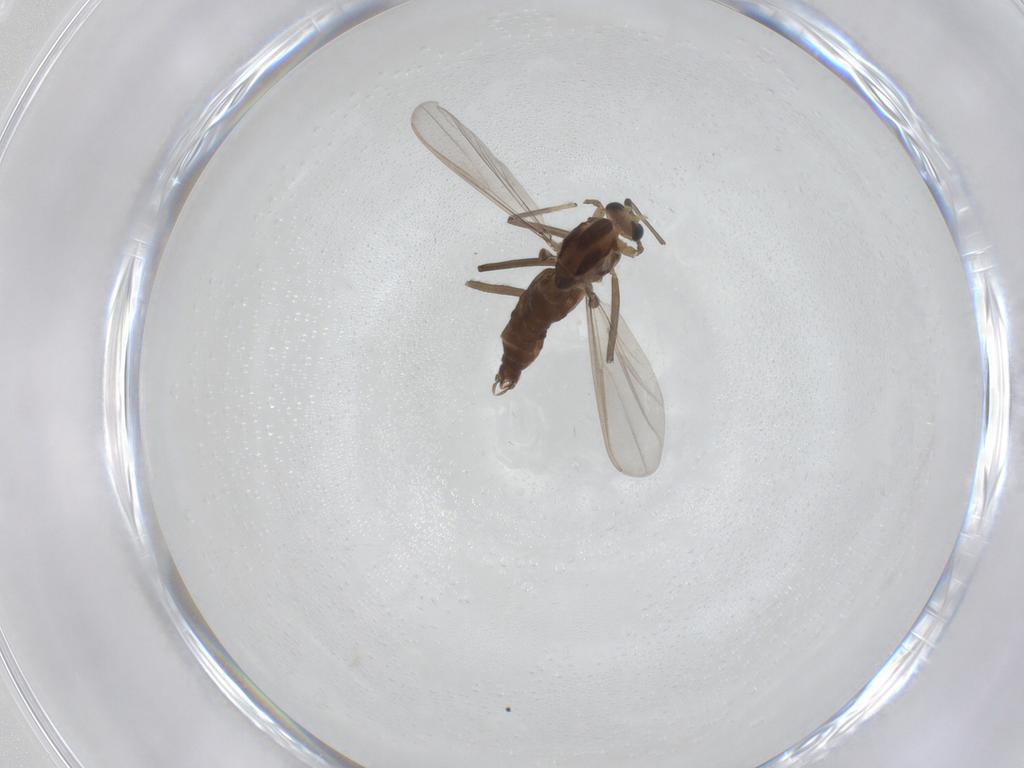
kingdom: Animalia
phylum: Arthropoda
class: Insecta
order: Diptera
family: Chironomidae
